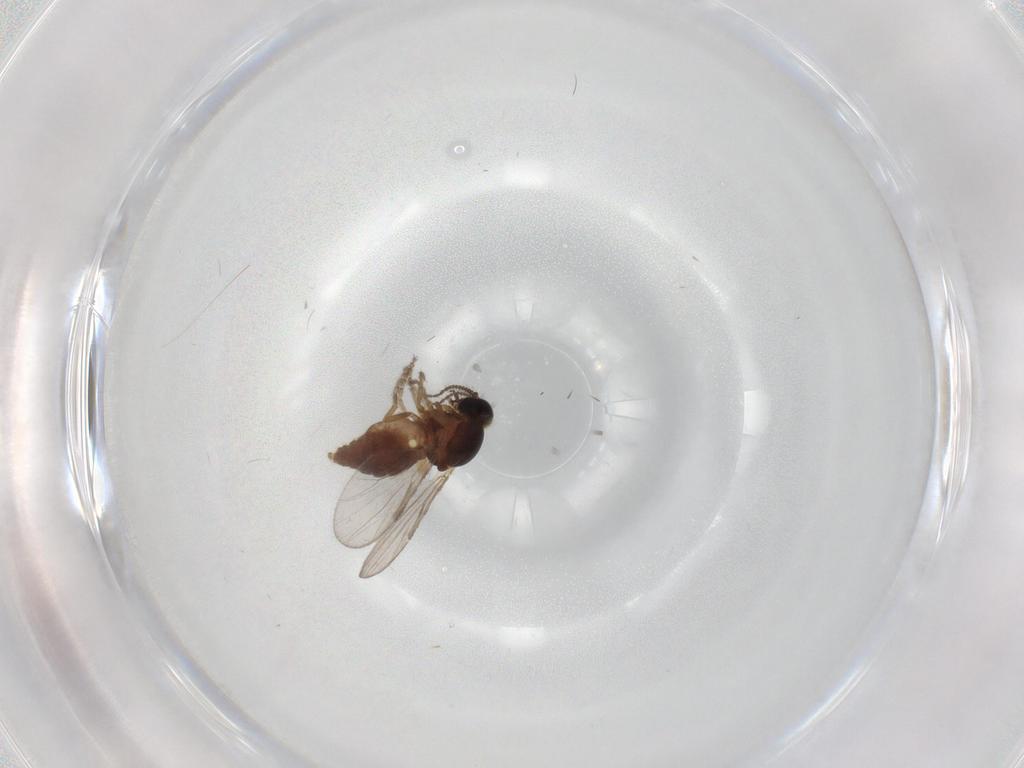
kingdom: Animalia
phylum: Arthropoda
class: Insecta
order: Diptera
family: Ceratopogonidae
